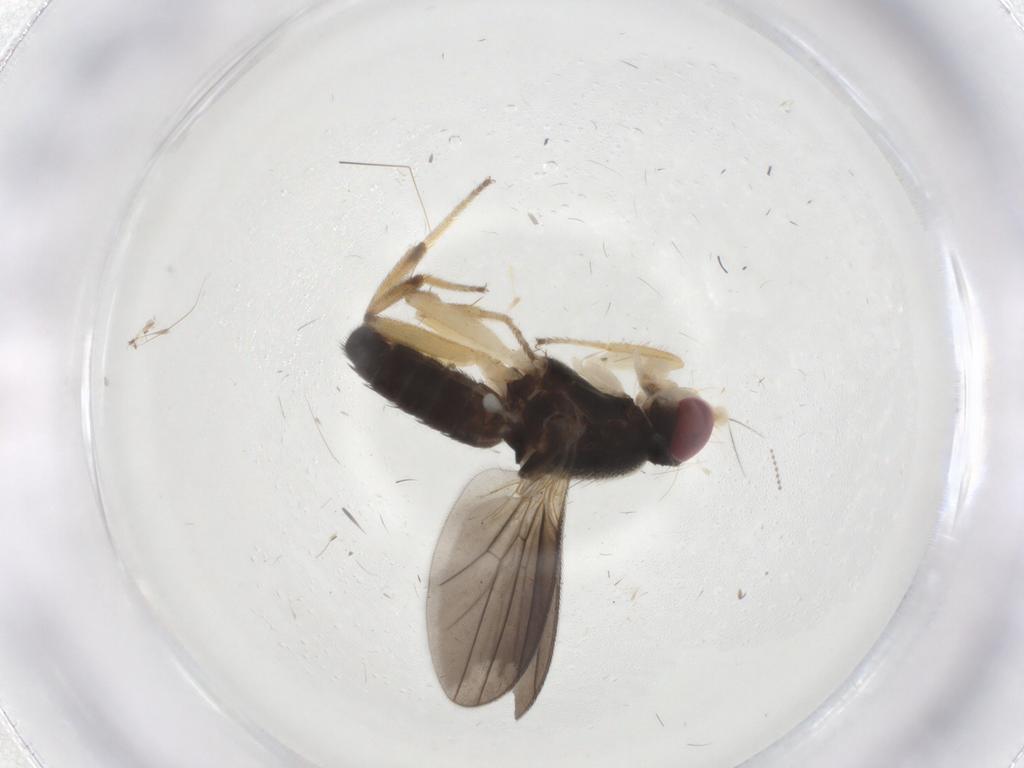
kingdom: Animalia
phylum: Arthropoda
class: Insecta
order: Diptera
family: Clusiidae
